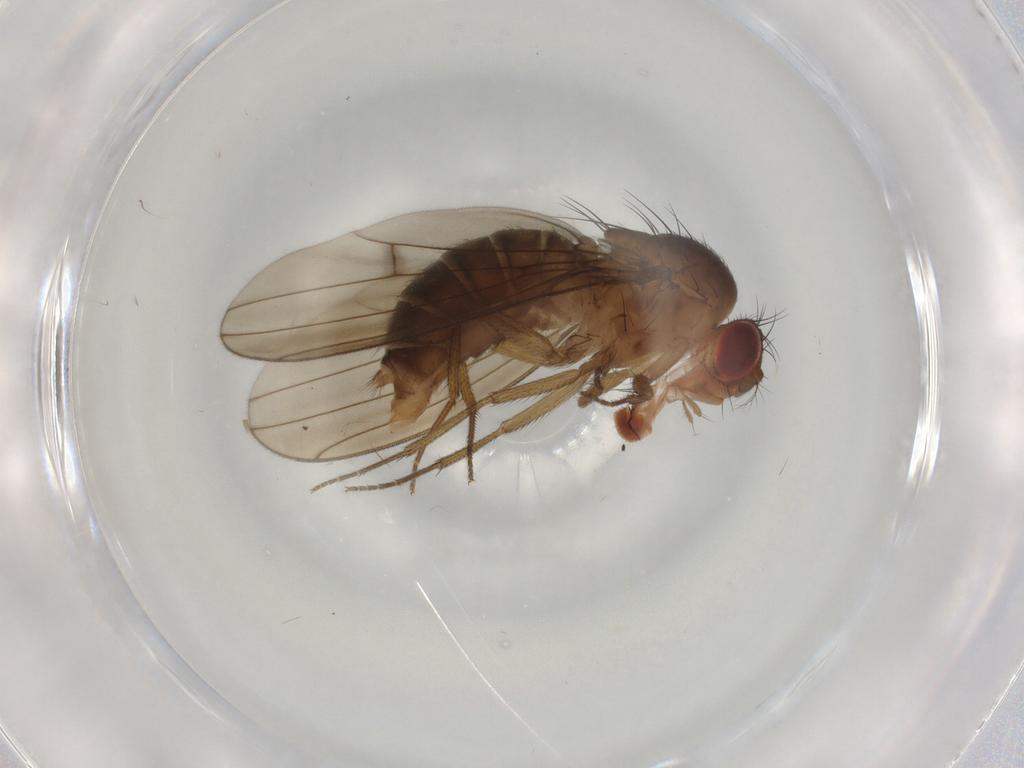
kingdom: Animalia
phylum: Arthropoda
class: Insecta
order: Diptera
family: Drosophilidae
